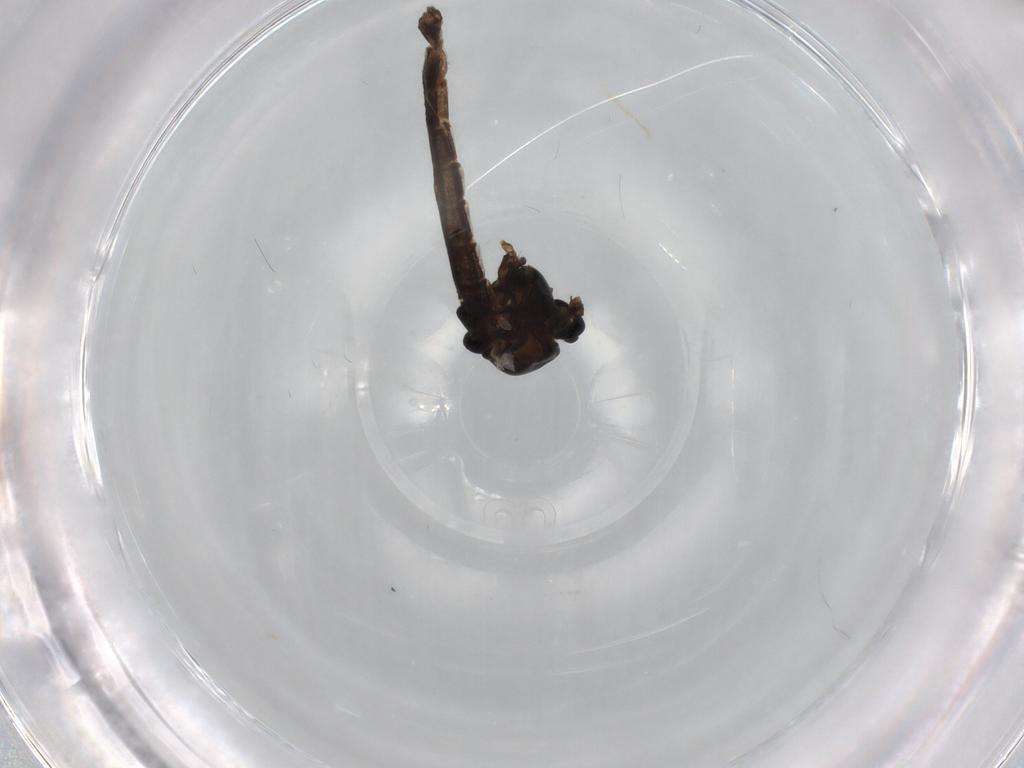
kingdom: Animalia
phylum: Arthropoda
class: Insecta
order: Diptera
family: Chironomidae
